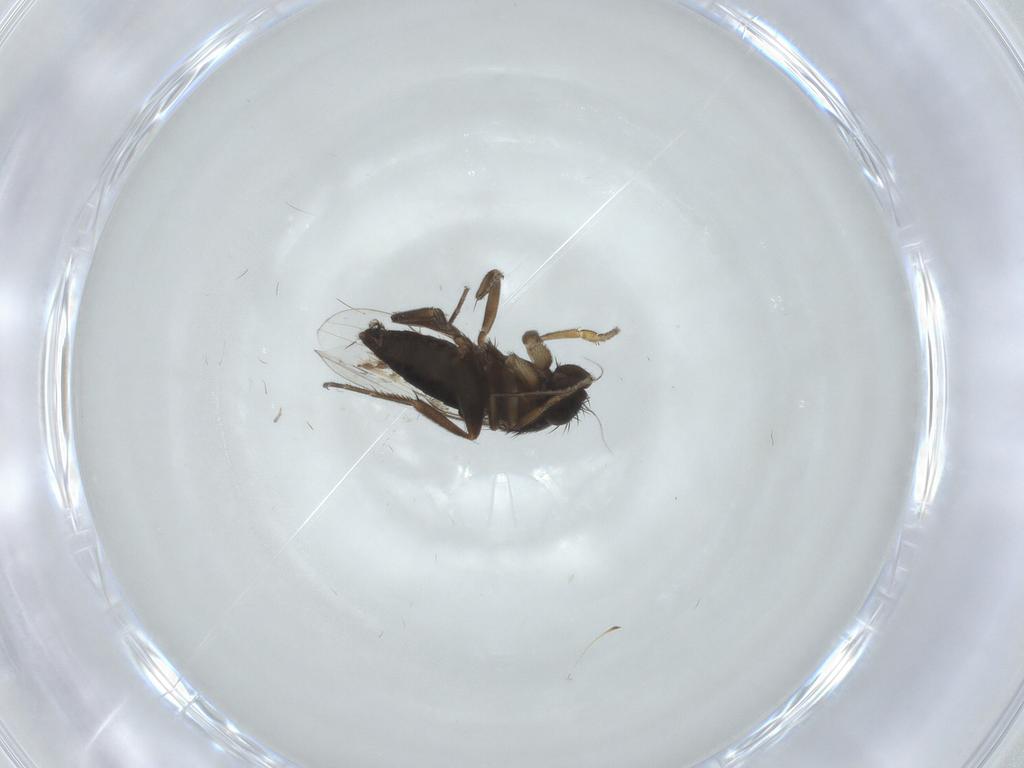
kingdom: Animalia
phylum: Arthropoda
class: Insecta
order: Diptera
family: Phoridae
